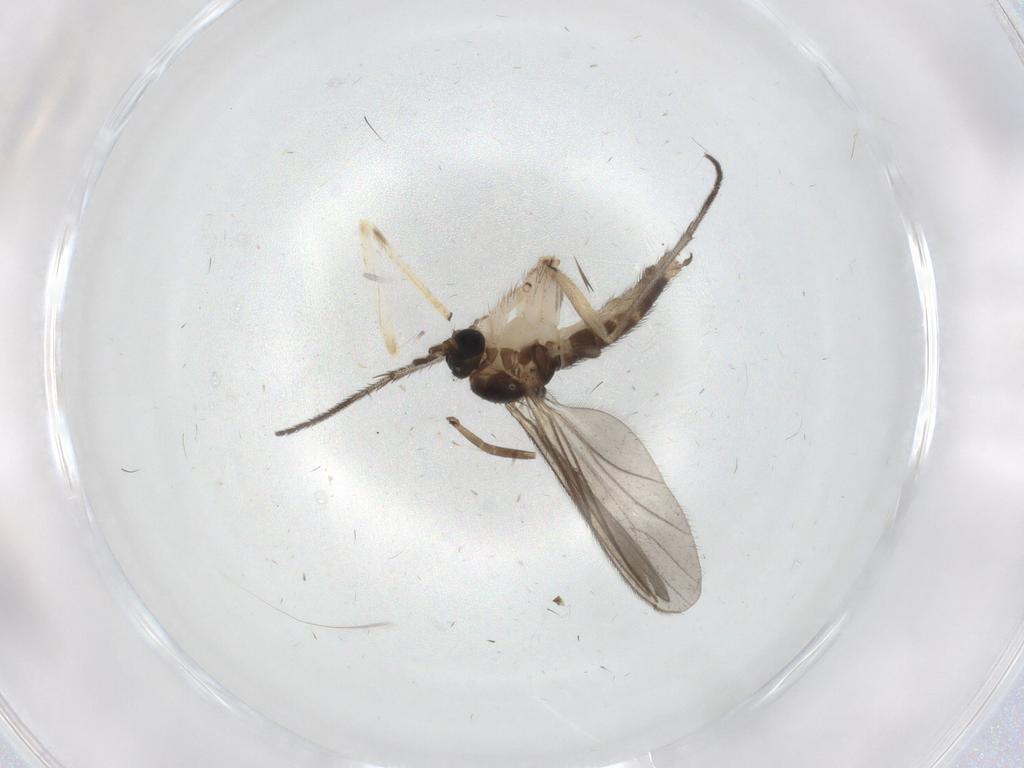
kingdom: Animalia
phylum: Arthropoda
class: Insecta
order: Diptera
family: Sciaridae
